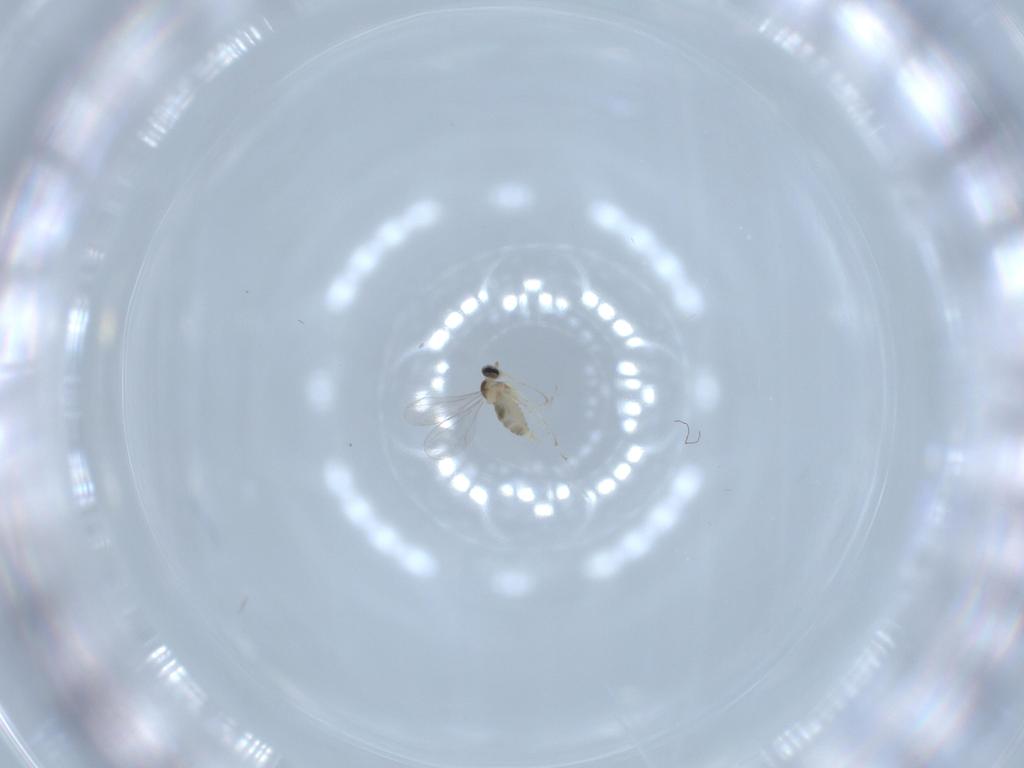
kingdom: Animalia
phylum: Arthropoda
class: Insecta
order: Diptera
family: Cecidomyiidae
